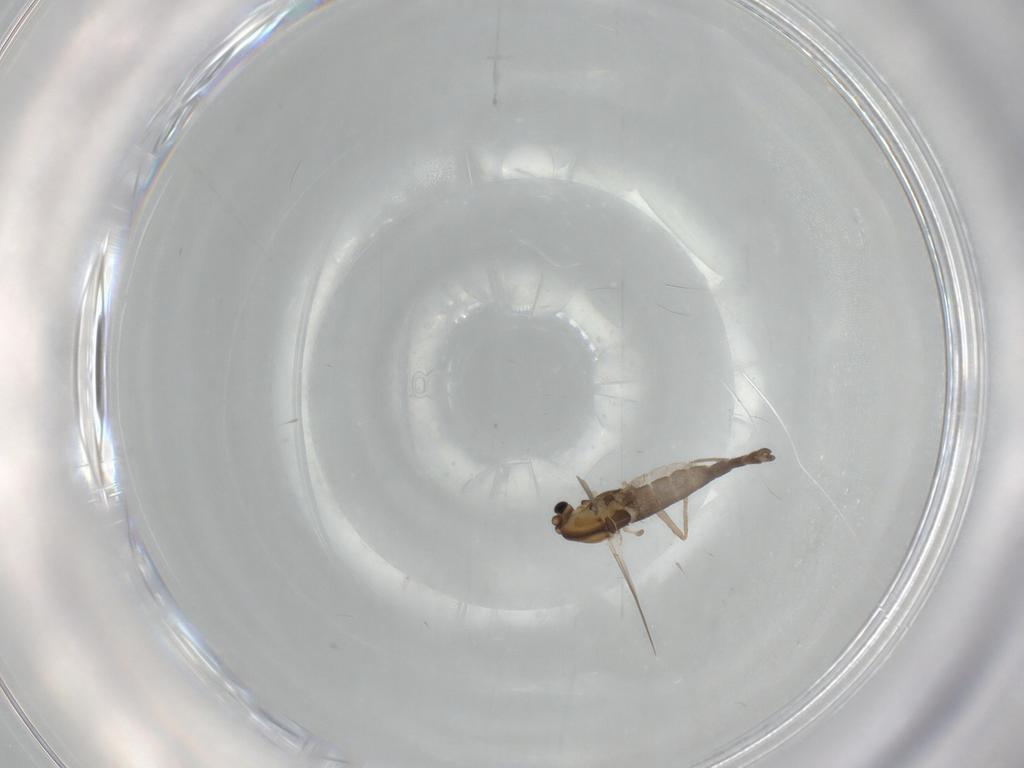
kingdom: Animalia
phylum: Arthropoda
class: Insecta
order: Diptera
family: Chironomidae
